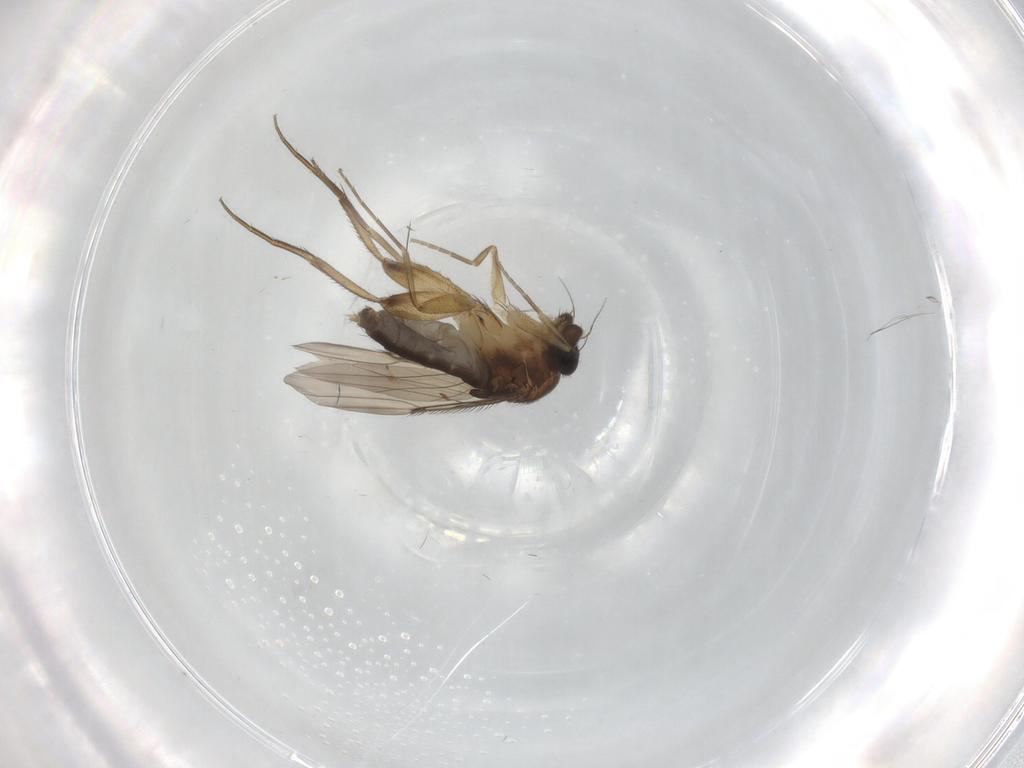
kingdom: Animalia
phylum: Arthropoda
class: Insecta
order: Diptera
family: Phoridae
